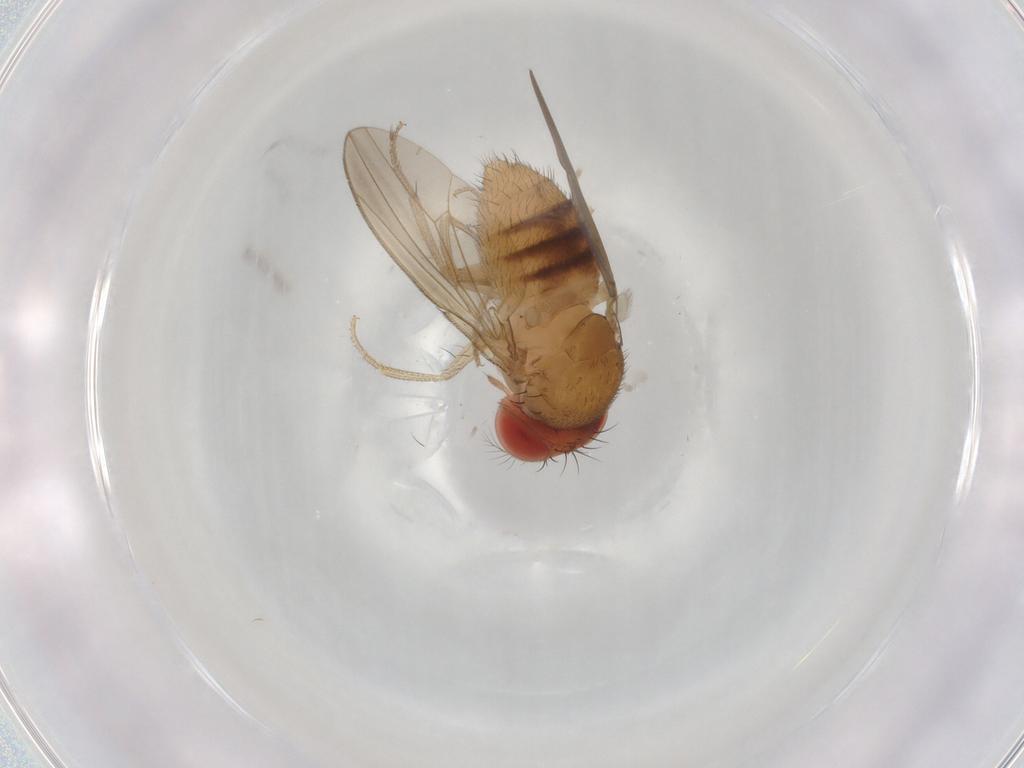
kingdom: Animalia
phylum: Arthropoda
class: Insecta
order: Diptera
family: Drosophilidae
